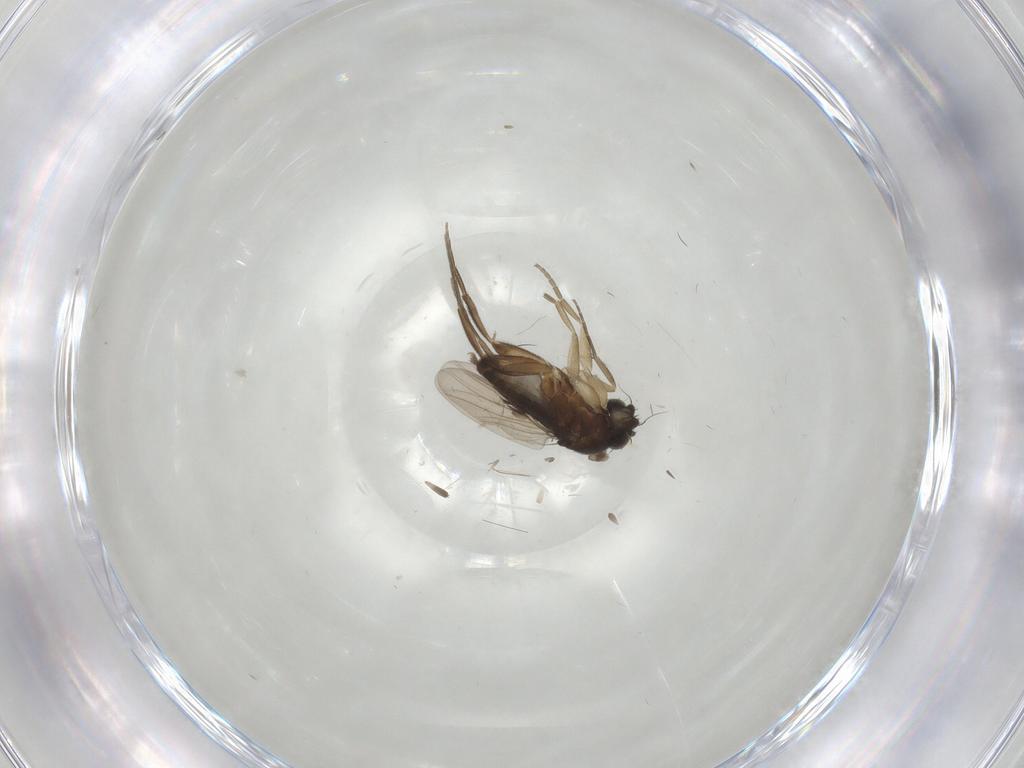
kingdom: Animalia
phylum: Arthropoda
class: Insecta
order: Diptera
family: Phoridae
